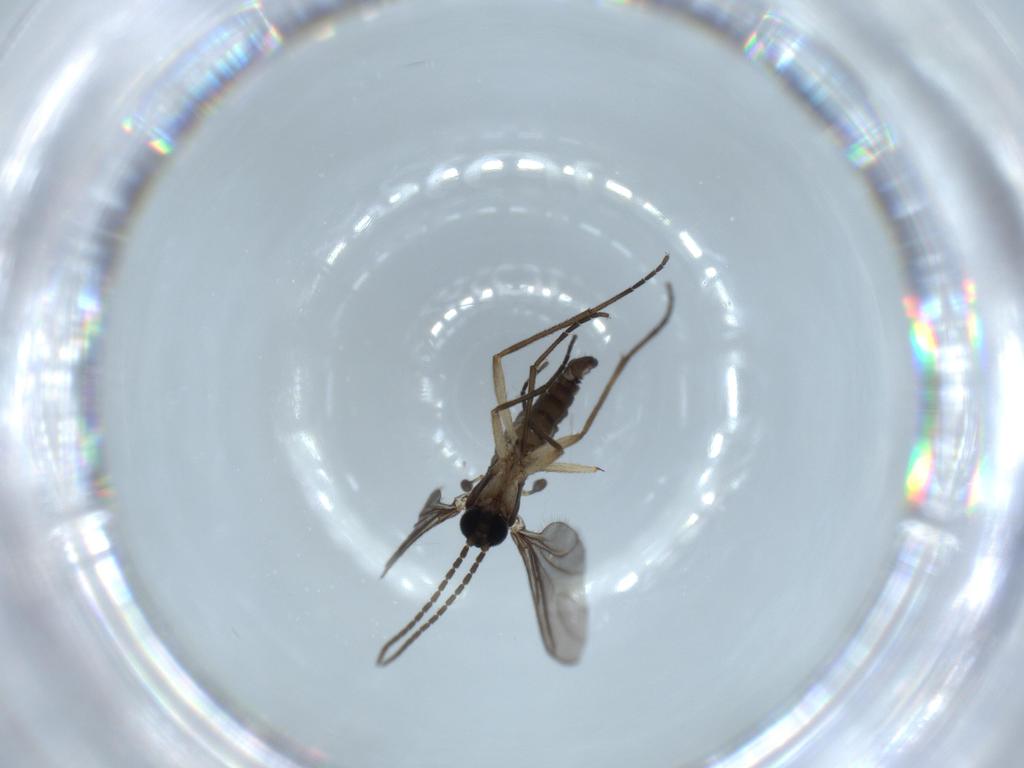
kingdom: Animalia
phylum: Arthropoda
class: Insecta
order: Diptera
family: Sciaridae
